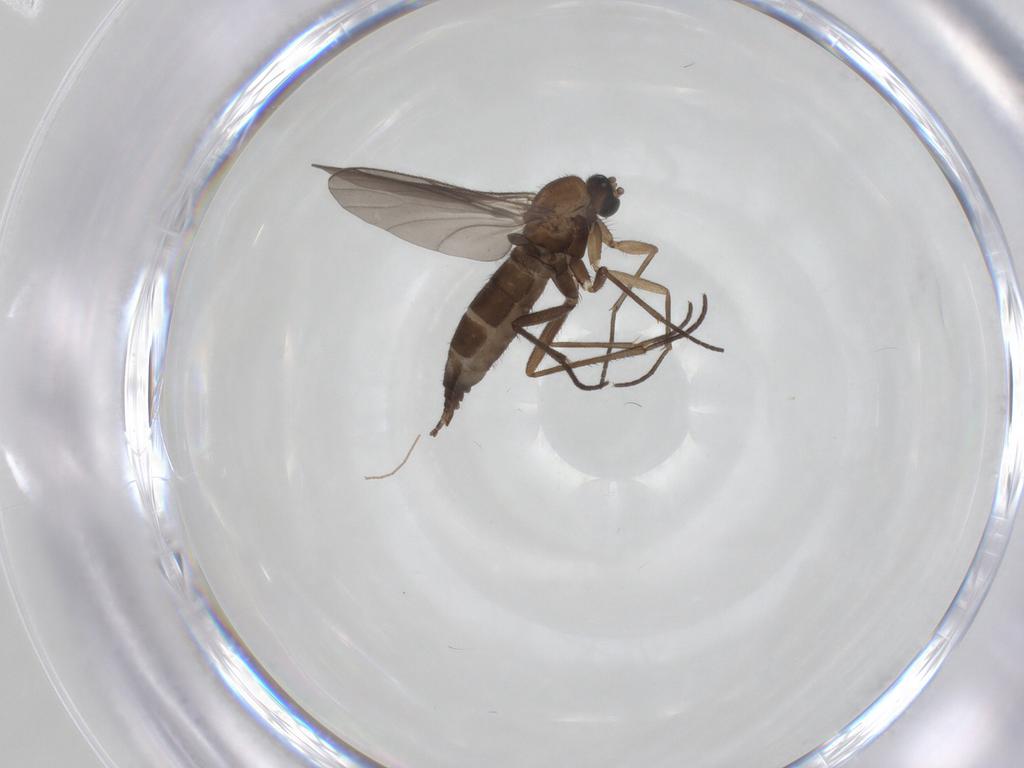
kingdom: Animalia
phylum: Arthropoda
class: Insecta
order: Diptera
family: Sciaridae
